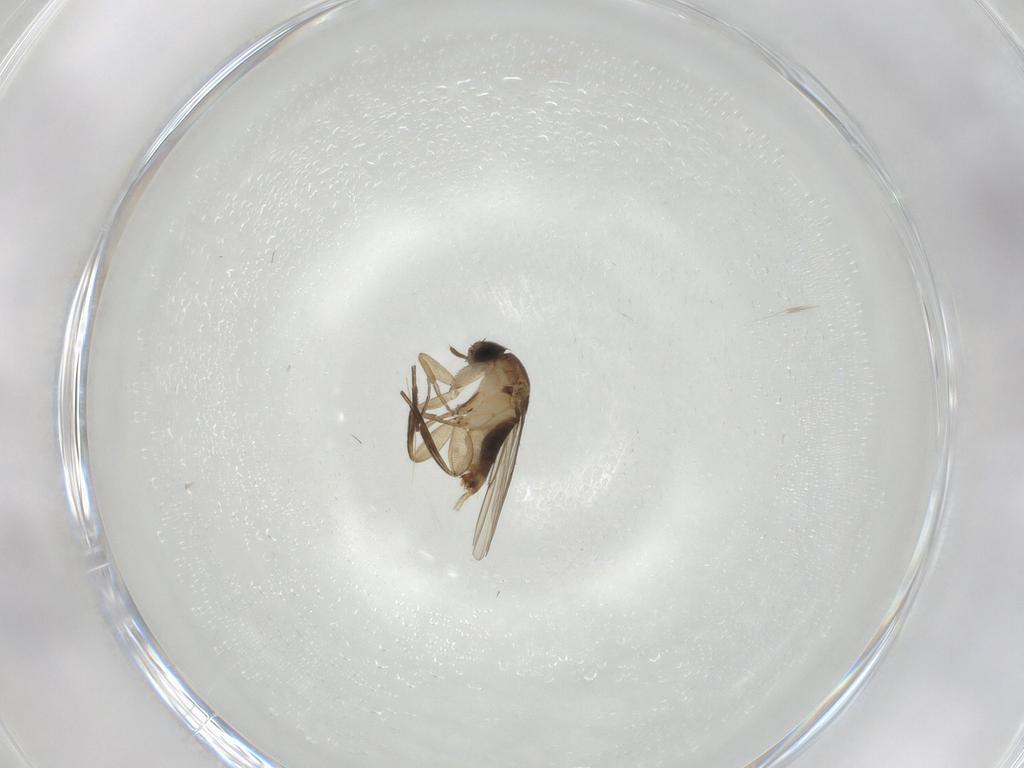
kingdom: Animalia
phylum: Arthropoda
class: Insecta
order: Diptera
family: Phoridae
